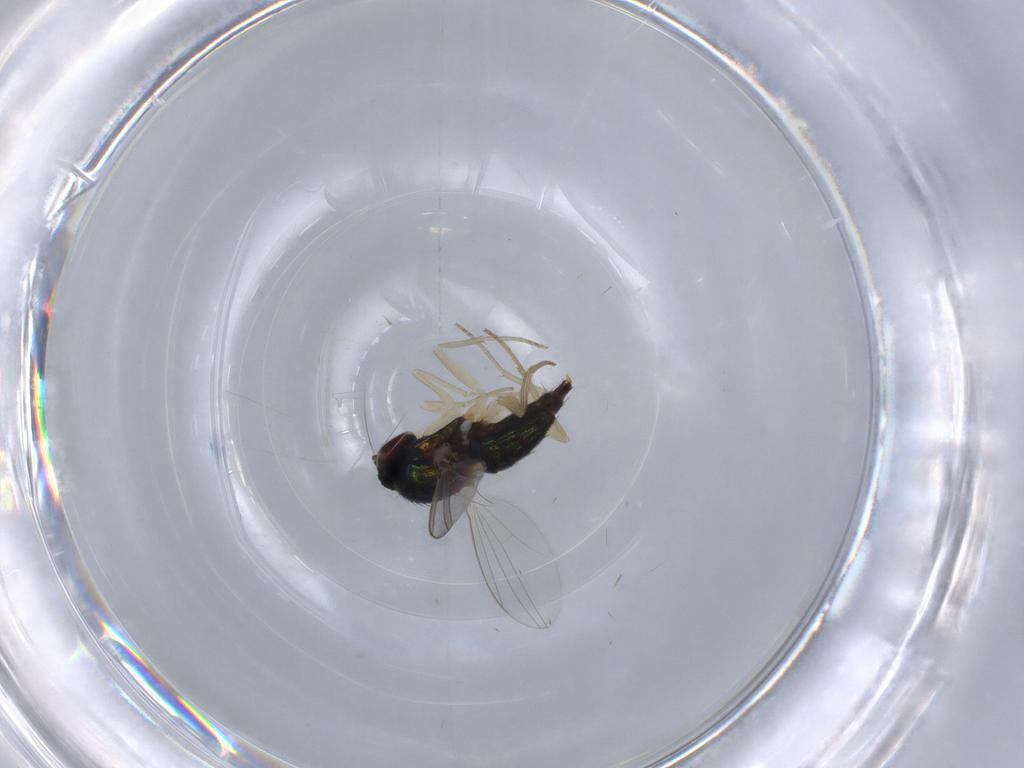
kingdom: Animalia
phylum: Arthropoda
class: Insecta
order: Diptera
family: Dolichopodidae
